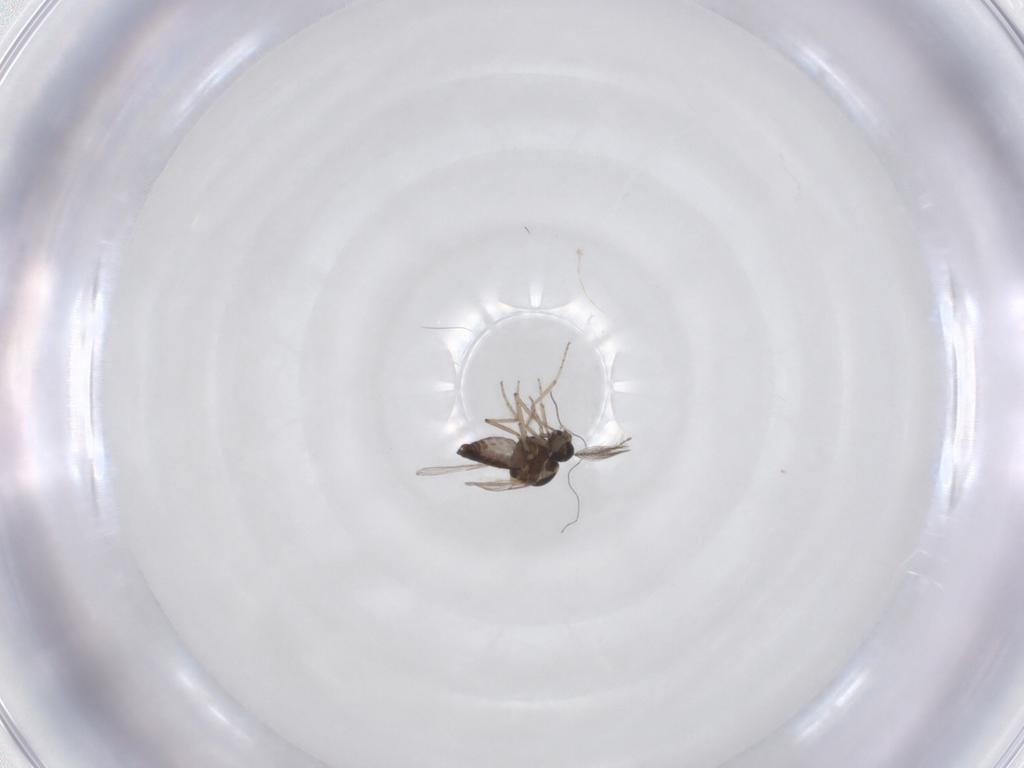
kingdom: Animalia
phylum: Arthropoda
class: Insecta
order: Diptera
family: Ceratopogonidae
